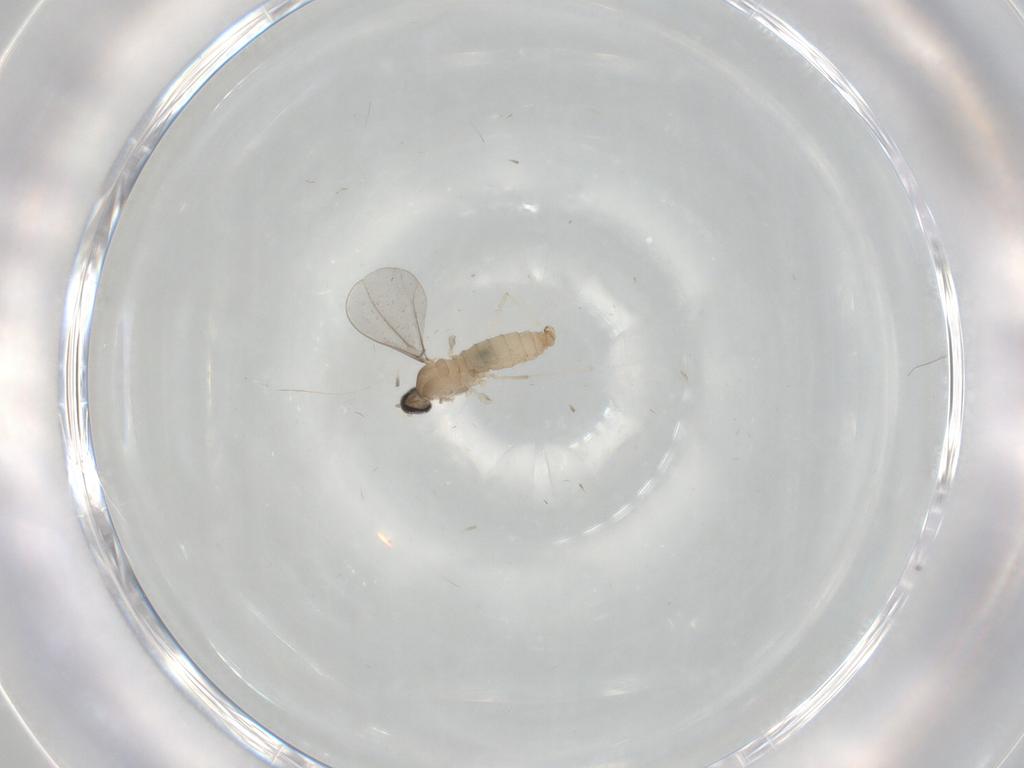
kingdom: Animalia
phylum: Arthropoda
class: Insecta
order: Diptera
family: Cecidomyiidae
